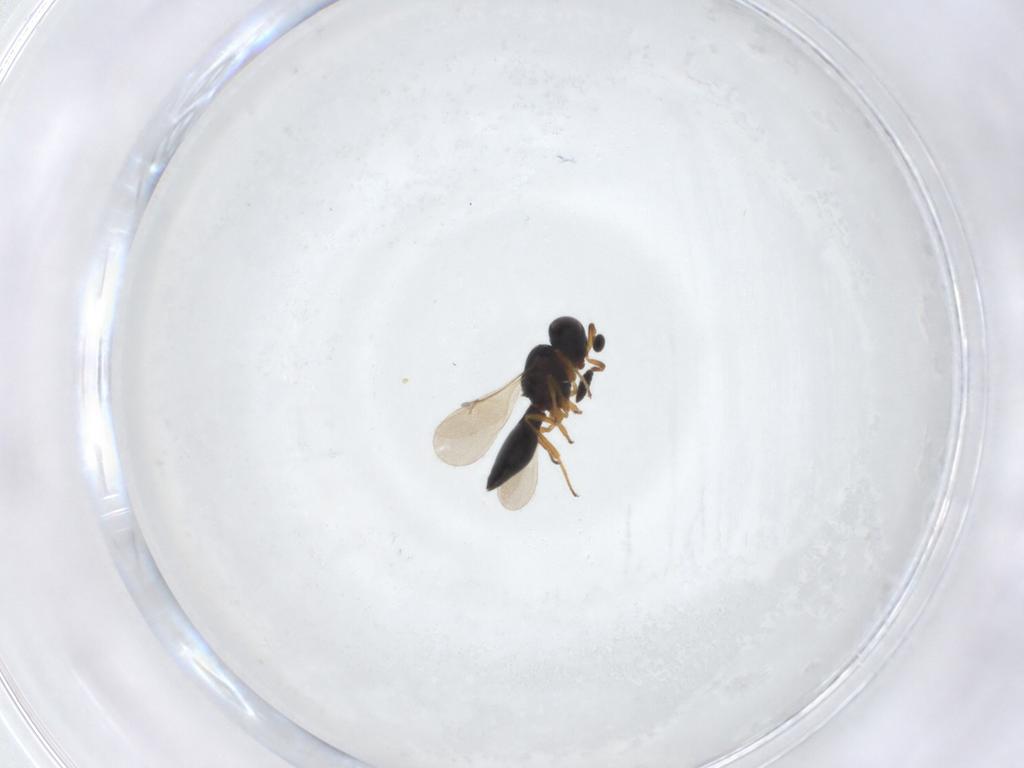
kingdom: Animalia
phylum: Arthropoda
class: Insecta
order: Hymenoptera
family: Scelionidae
